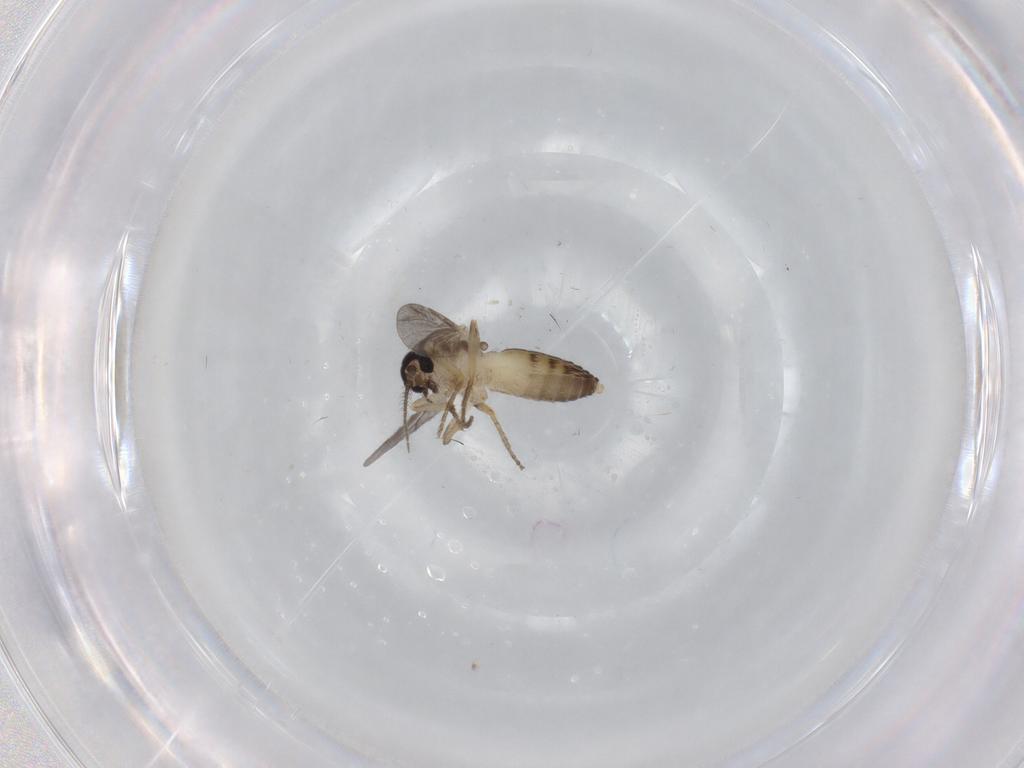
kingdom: Animalia
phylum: Arthropoda
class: Insecta
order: Diptera
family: Ceratopogonidae
